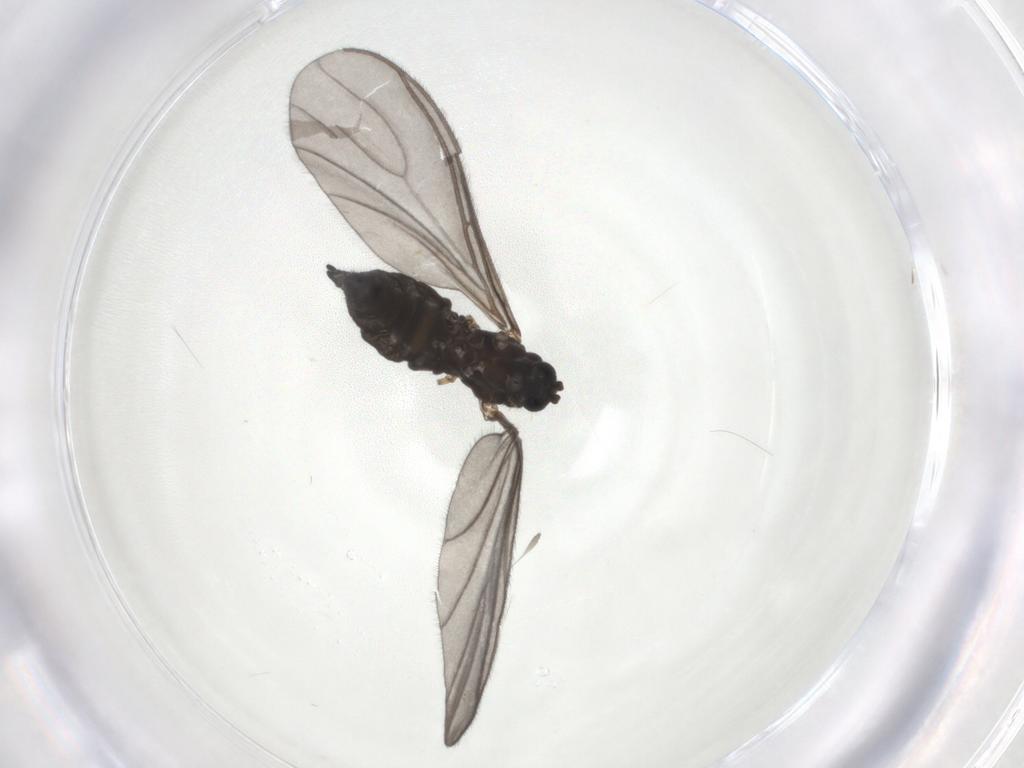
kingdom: Animalia
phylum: Arthropoda
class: Insecta
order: Diptera
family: Sciaridae
